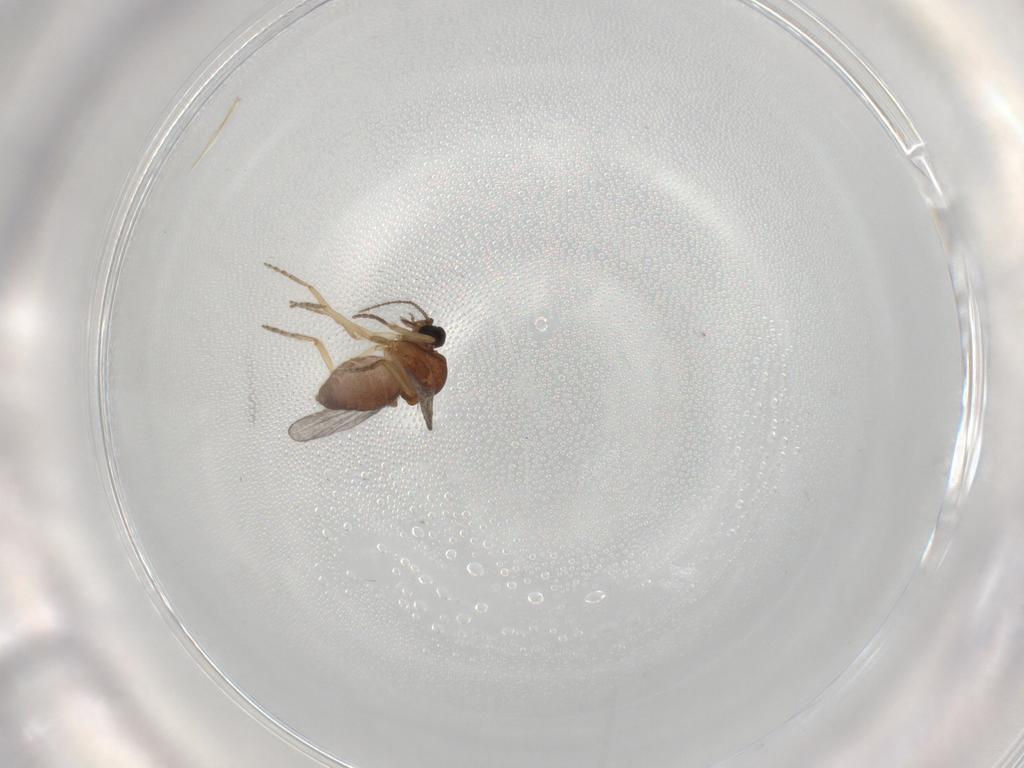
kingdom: Animalia
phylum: Arthropoda
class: Insecta
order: Diptera
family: Ceratopogonidae
